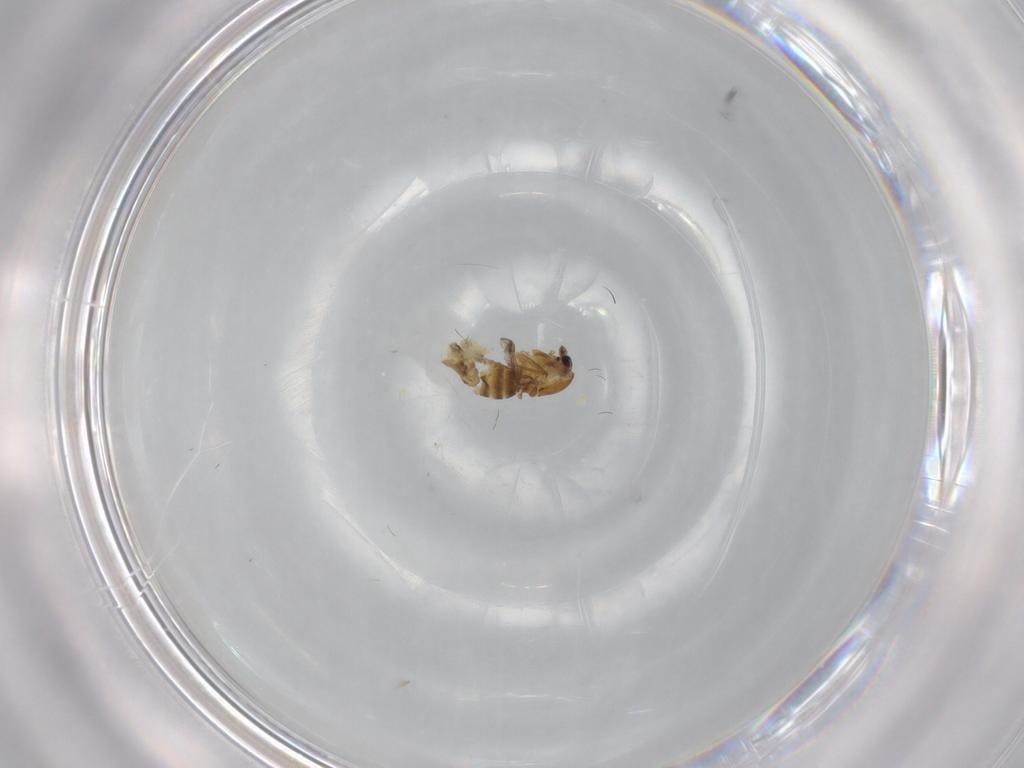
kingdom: Animalia
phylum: Arthropoda
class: Insecta
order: Diptera
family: Chironomidae
